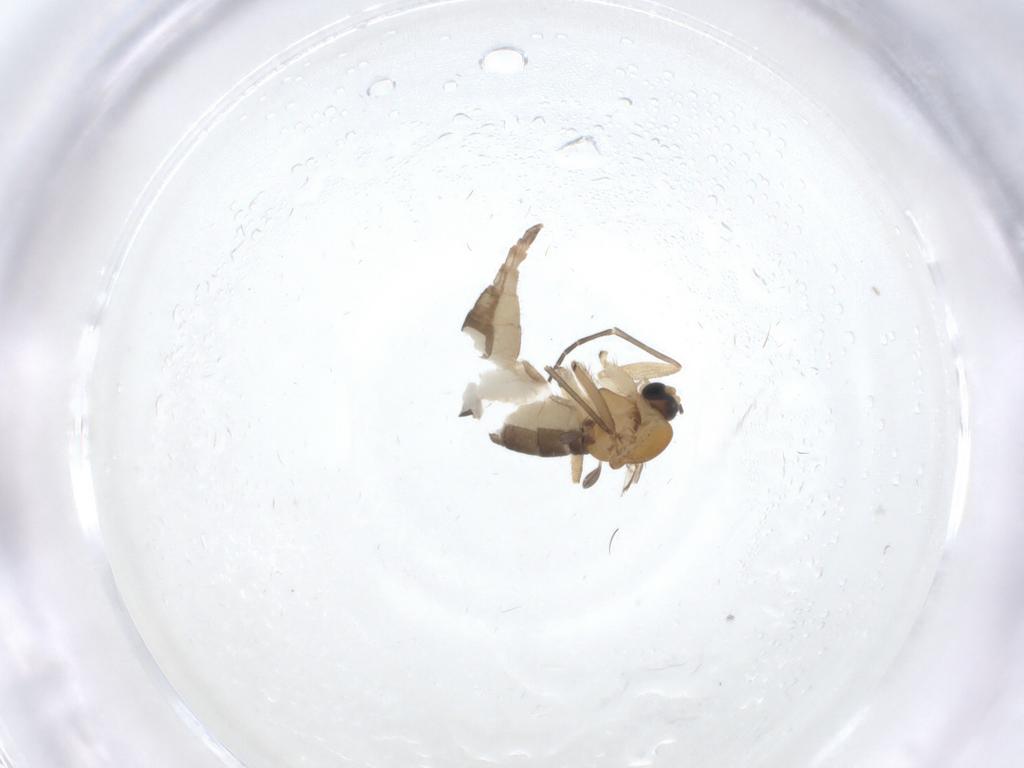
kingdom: Animalia
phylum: Arthropoda
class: Insecta
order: Diptera
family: Sciaridae
